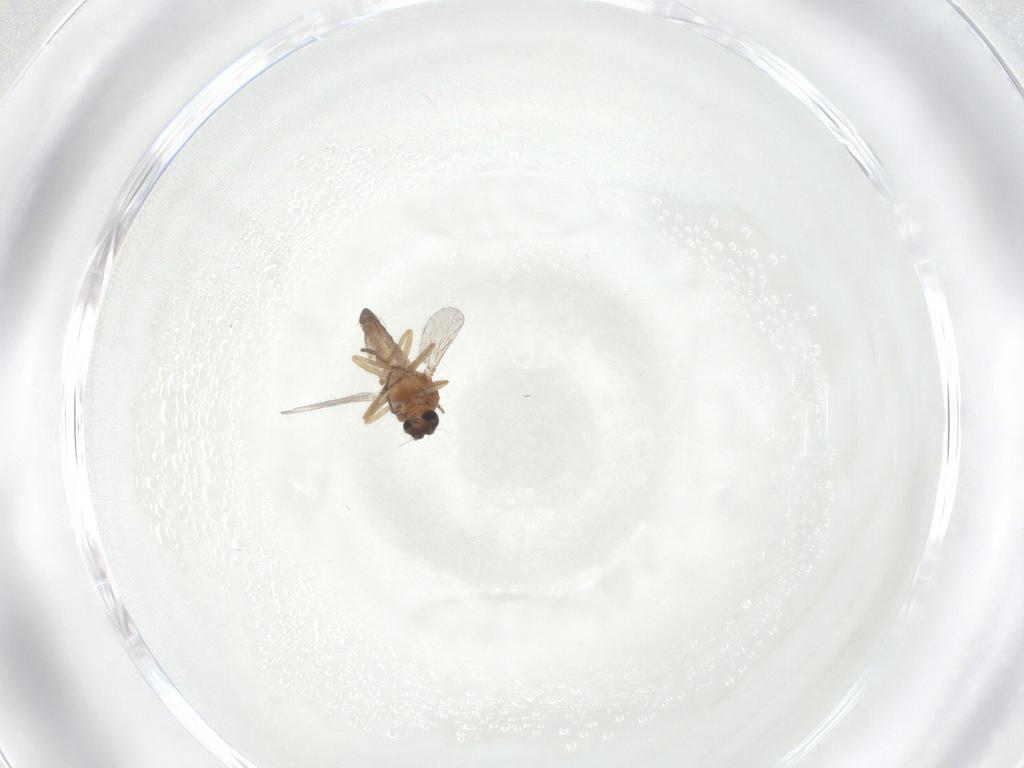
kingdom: Animalia
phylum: Arthropoda
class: Insecta
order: Diptera
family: Ceratopogonidae
